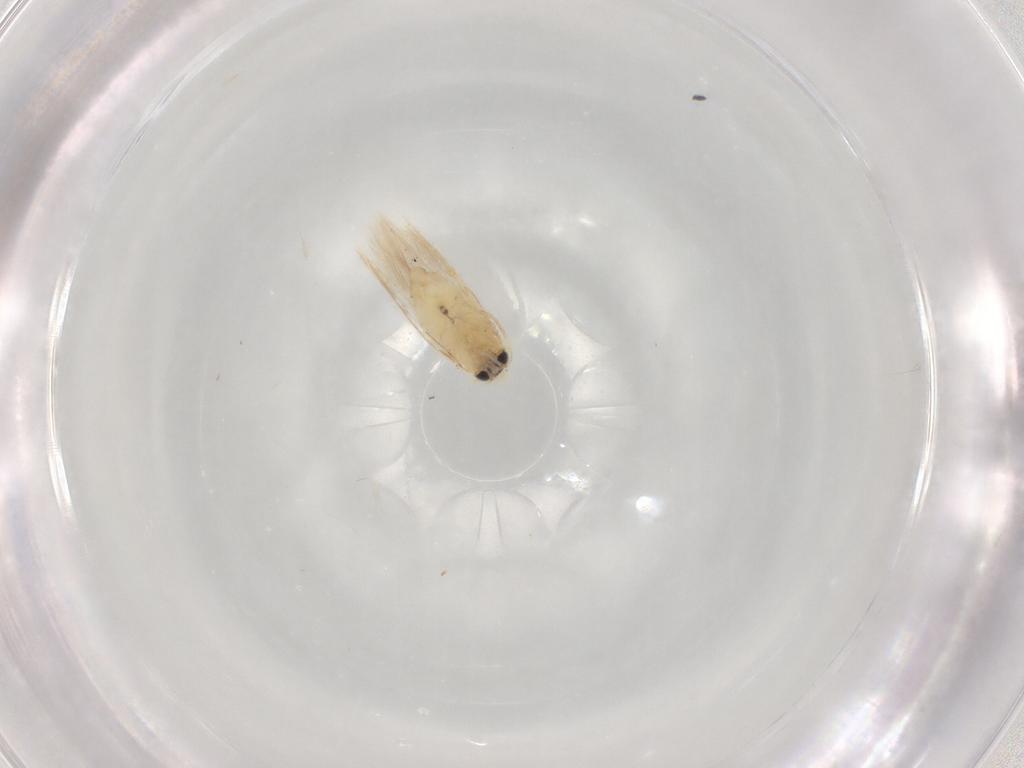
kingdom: Animalia
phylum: Arthropoda
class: Insecta
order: Lepidoptera
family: Nepticulidae
